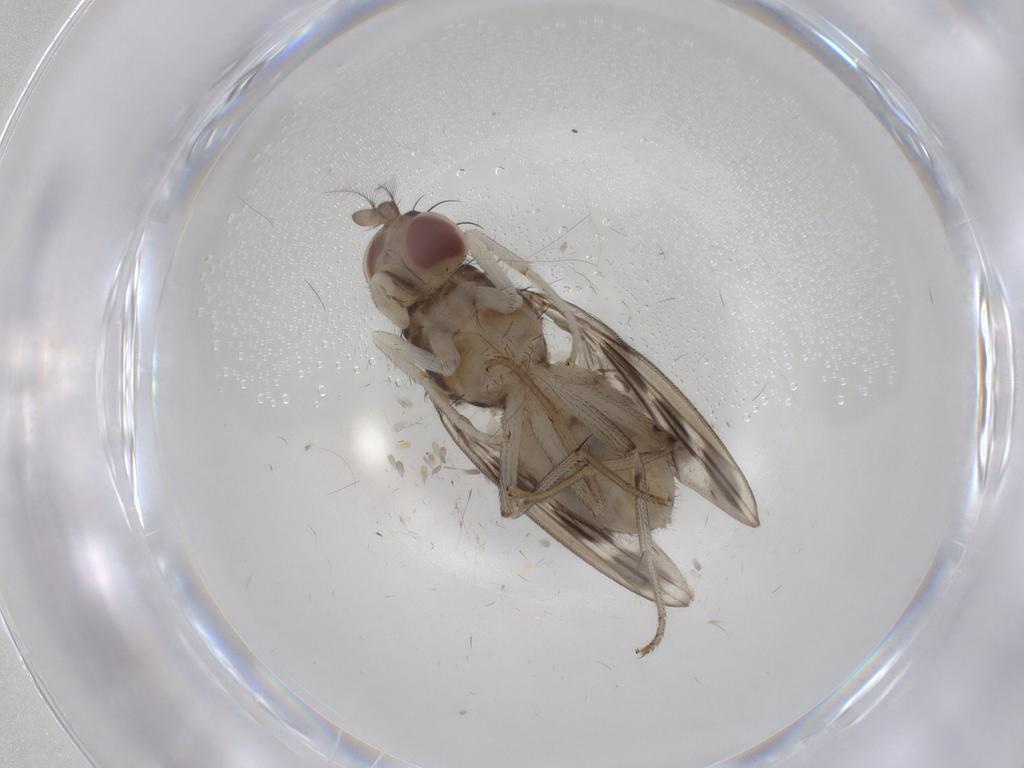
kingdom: Animalia
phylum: Arthropoda
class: Insecta
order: Diptera
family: Lauxaniidae
